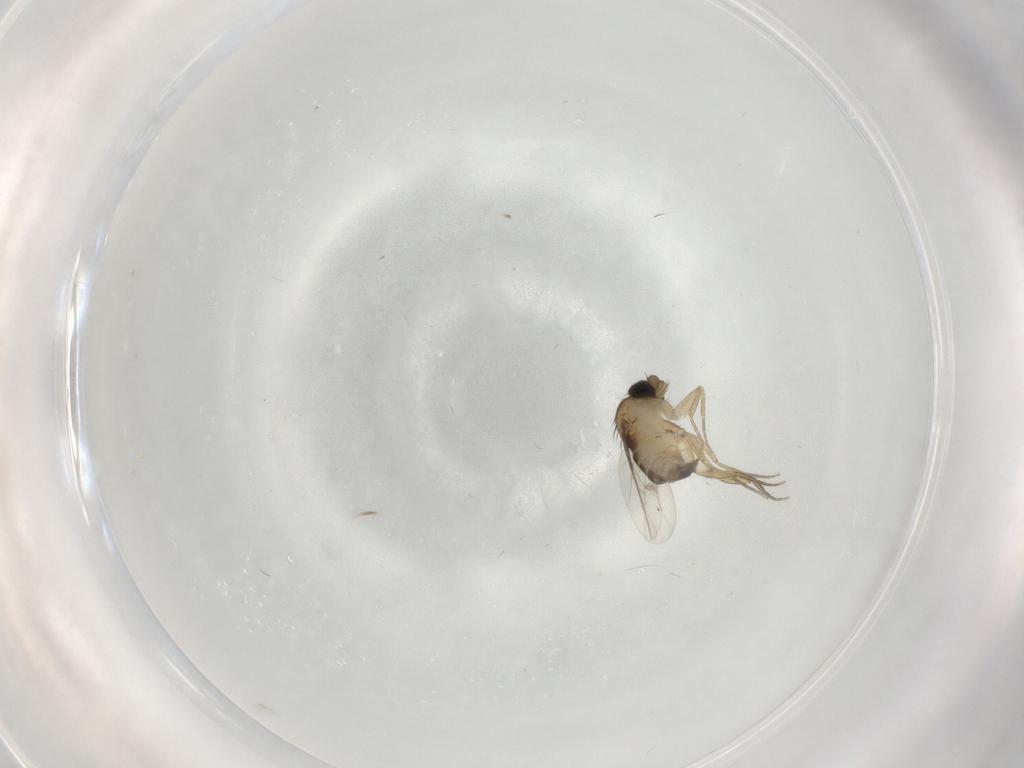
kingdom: Animalia
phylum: Arthropoda
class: Insecta
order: Diptera
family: Phoridae
